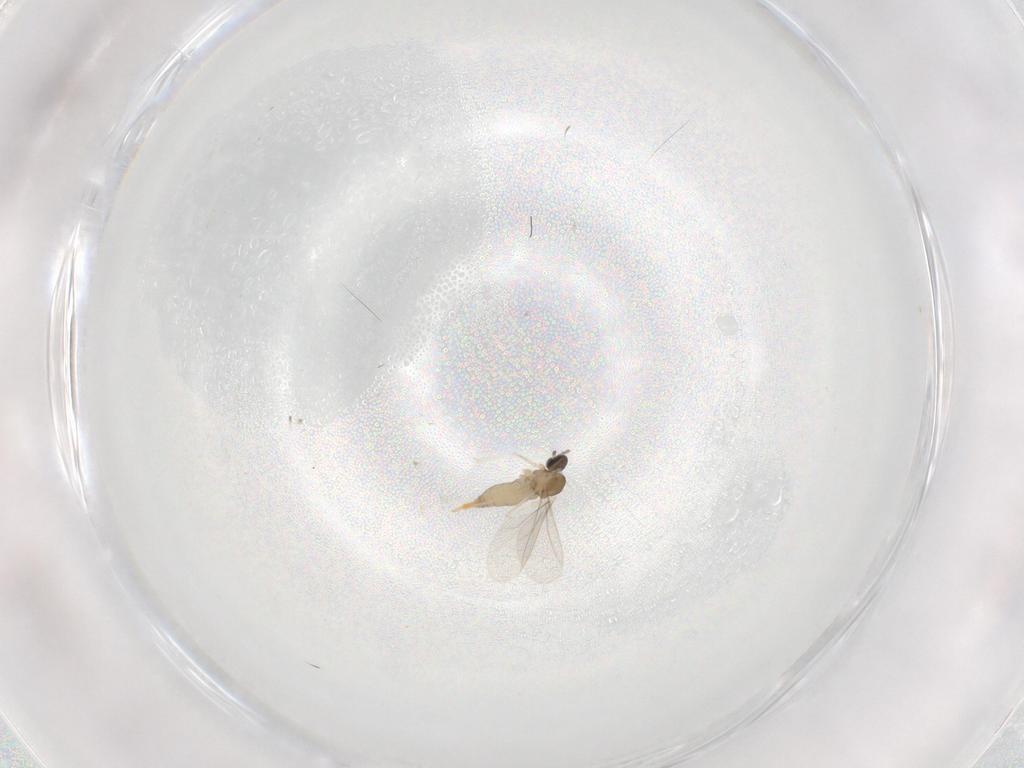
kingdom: Animalia
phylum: Arthropoda
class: Insecta
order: Diptera
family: Cecidomyiidae
